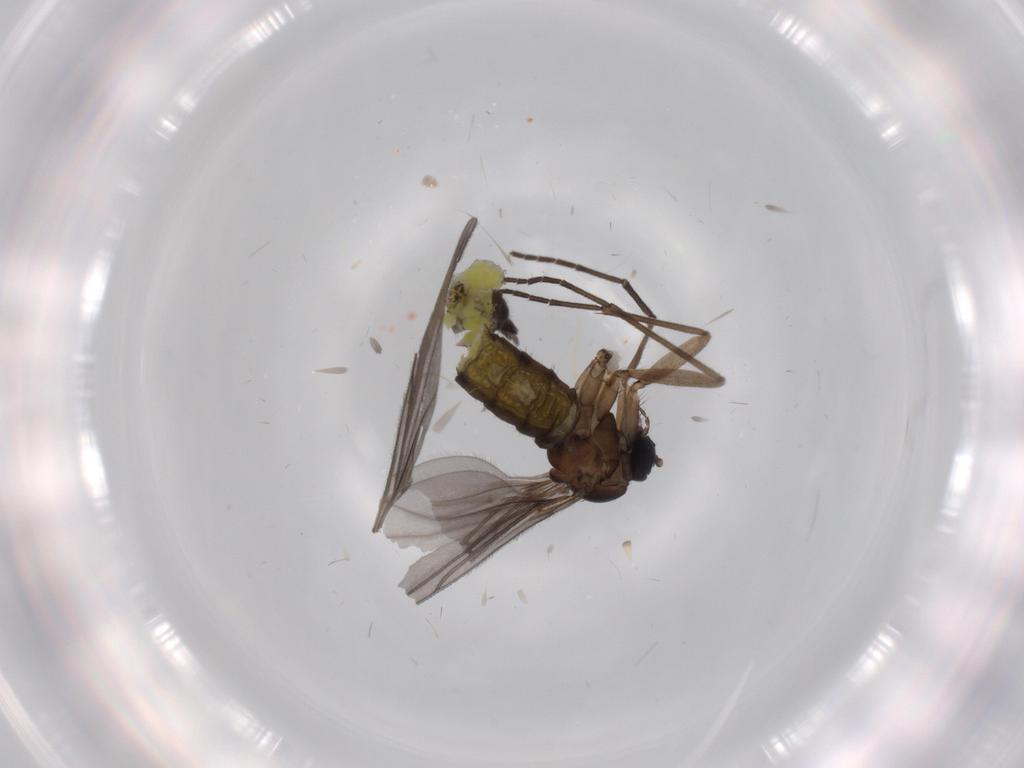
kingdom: Animalia
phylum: Arthropoda
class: Insecta
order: Diptera
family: Sciaridae
